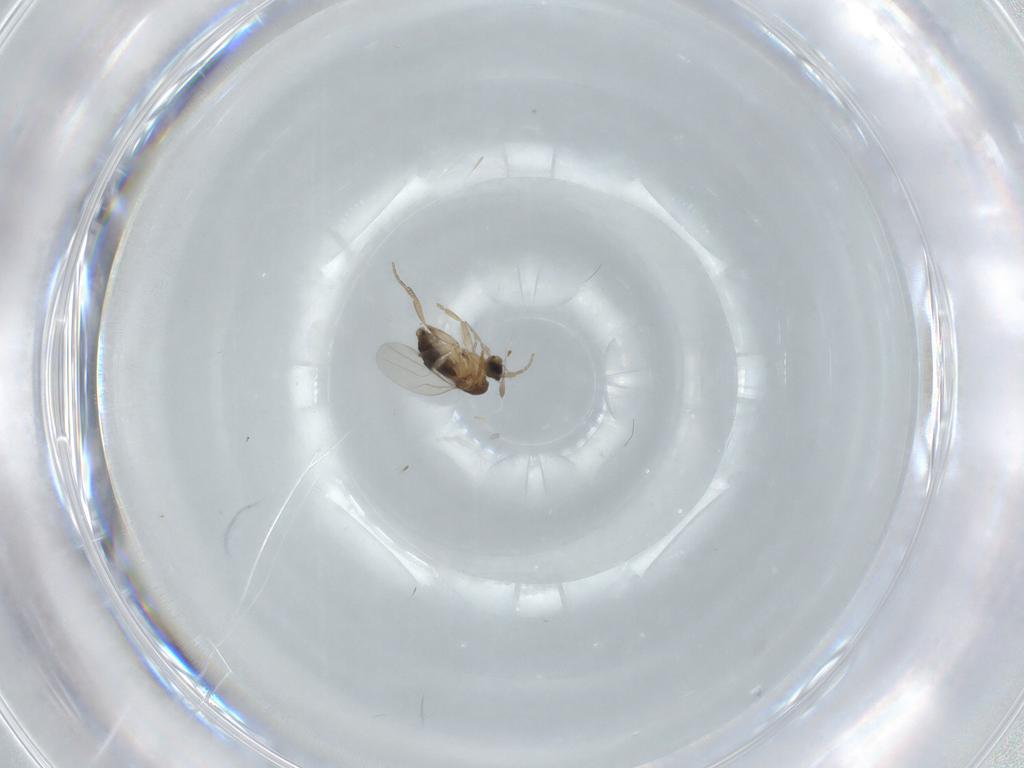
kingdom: Animalia
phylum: Arthropoda
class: Insecta
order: Diptera
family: Phoridae
